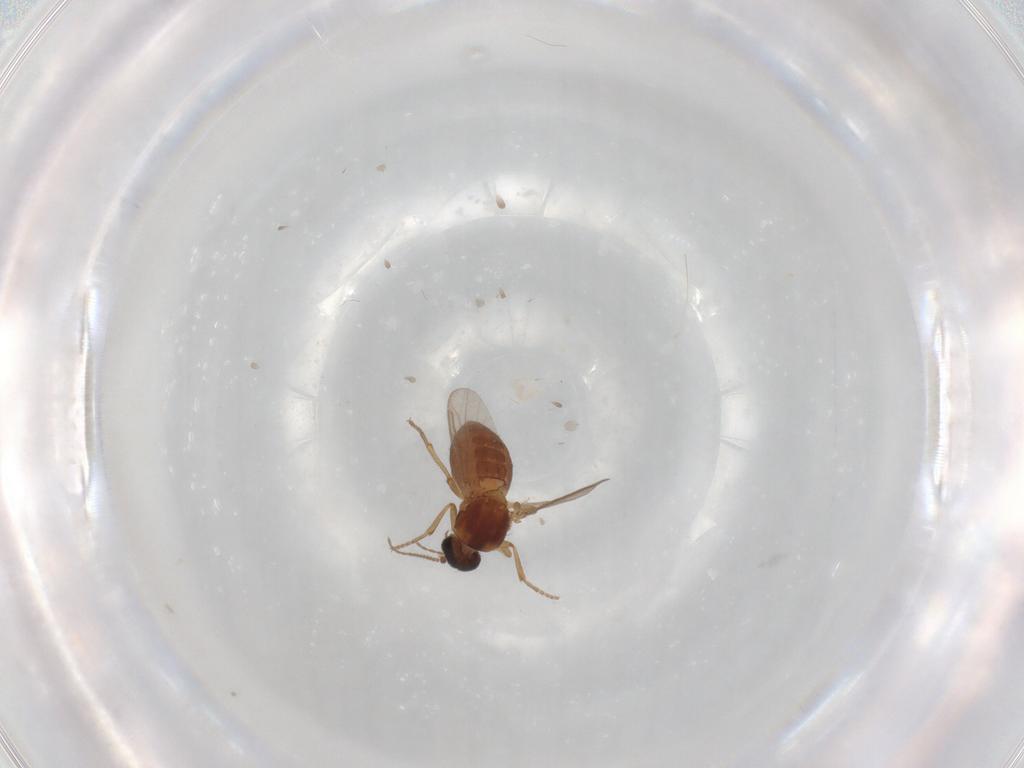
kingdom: Animalia
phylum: Arthropoda
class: Insecta
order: Diptera
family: Ceratopogonidae
